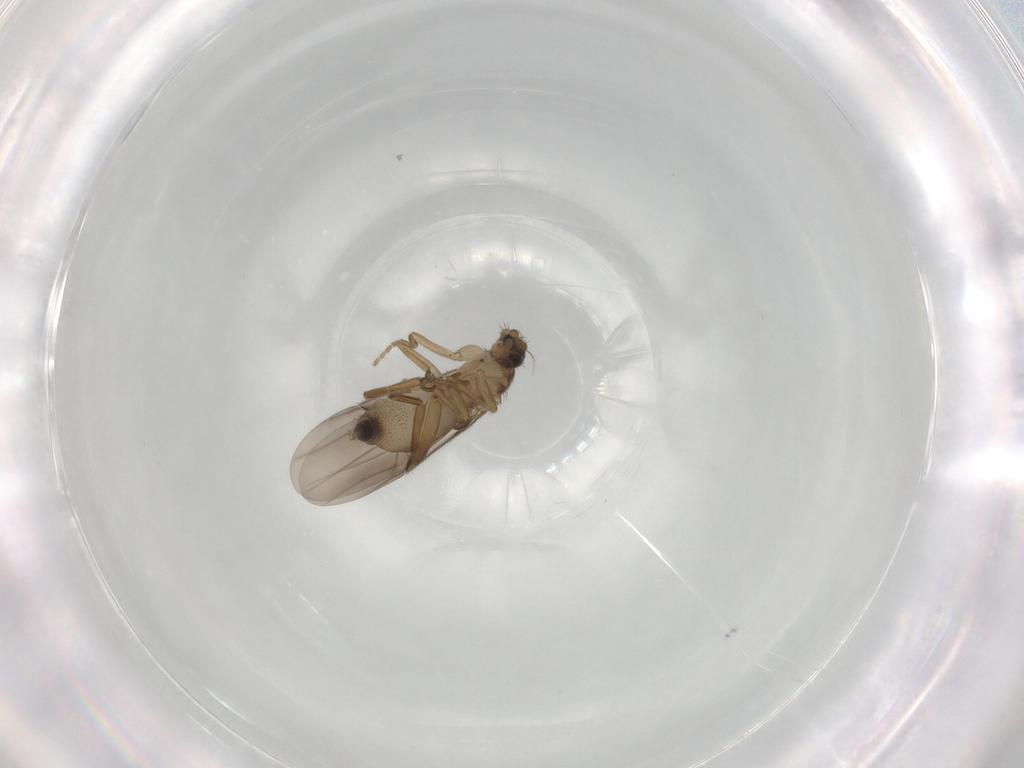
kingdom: Animalia
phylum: Arthropoda
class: Insecta
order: Diptera
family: Phoridae
